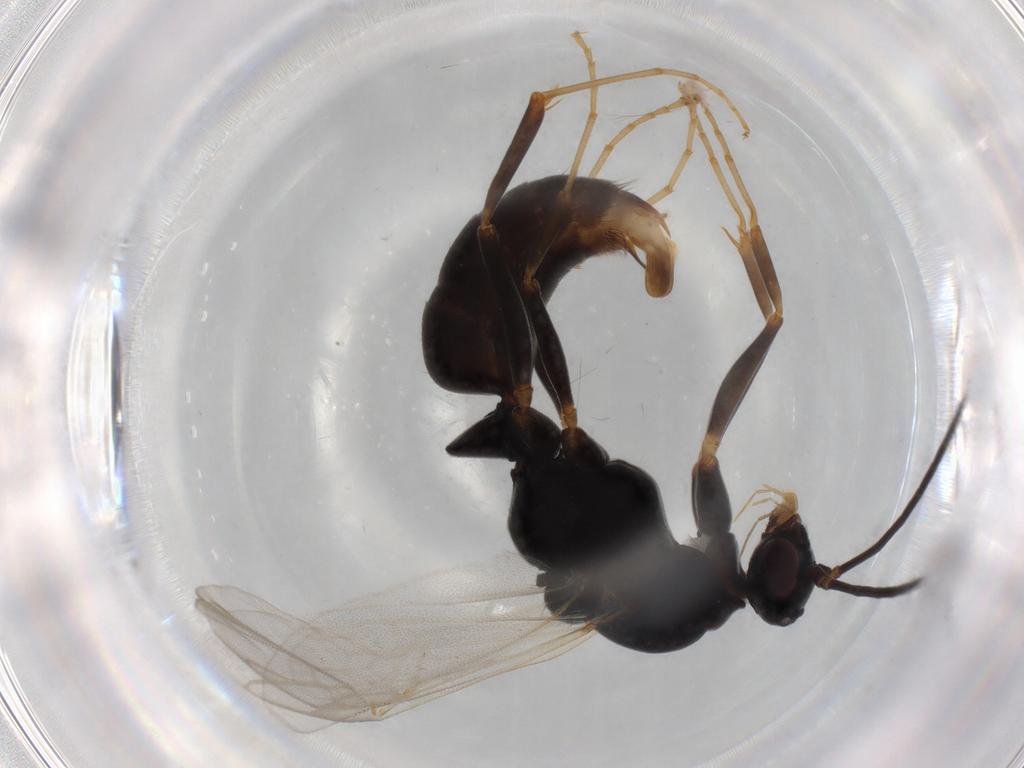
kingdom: Animalia
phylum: Arthropoda
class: Insecta
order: Hymenoptera
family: Formicidae
